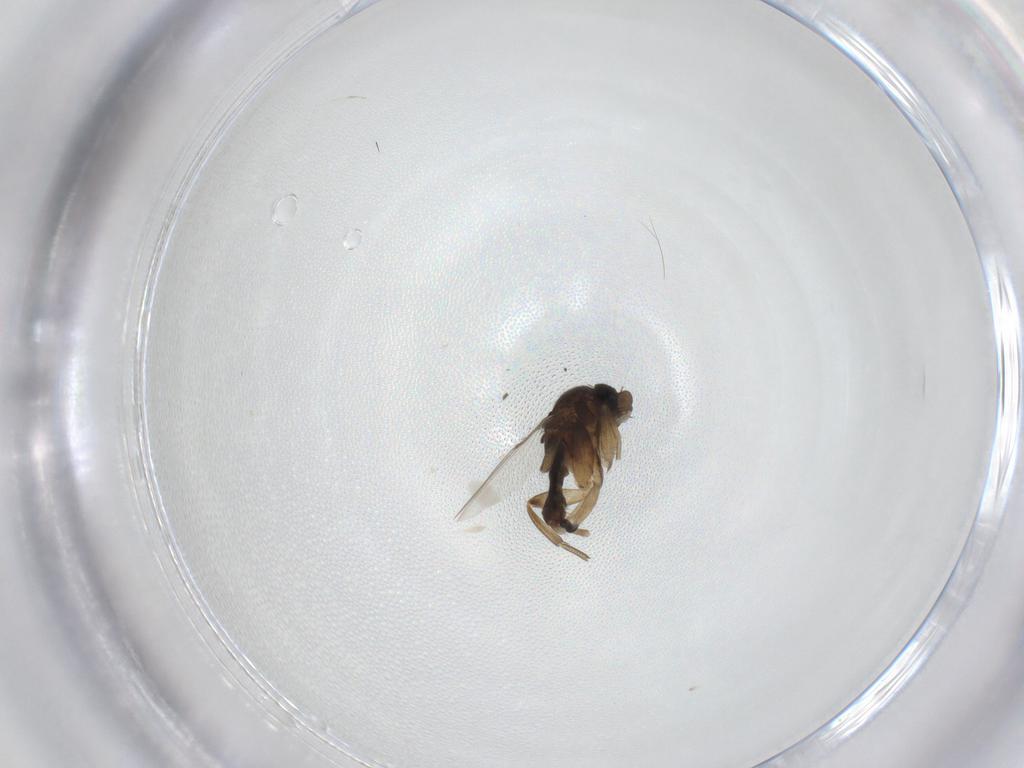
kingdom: Animalia
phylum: Arthropoda
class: Insecta
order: Diptera
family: Phoridae
